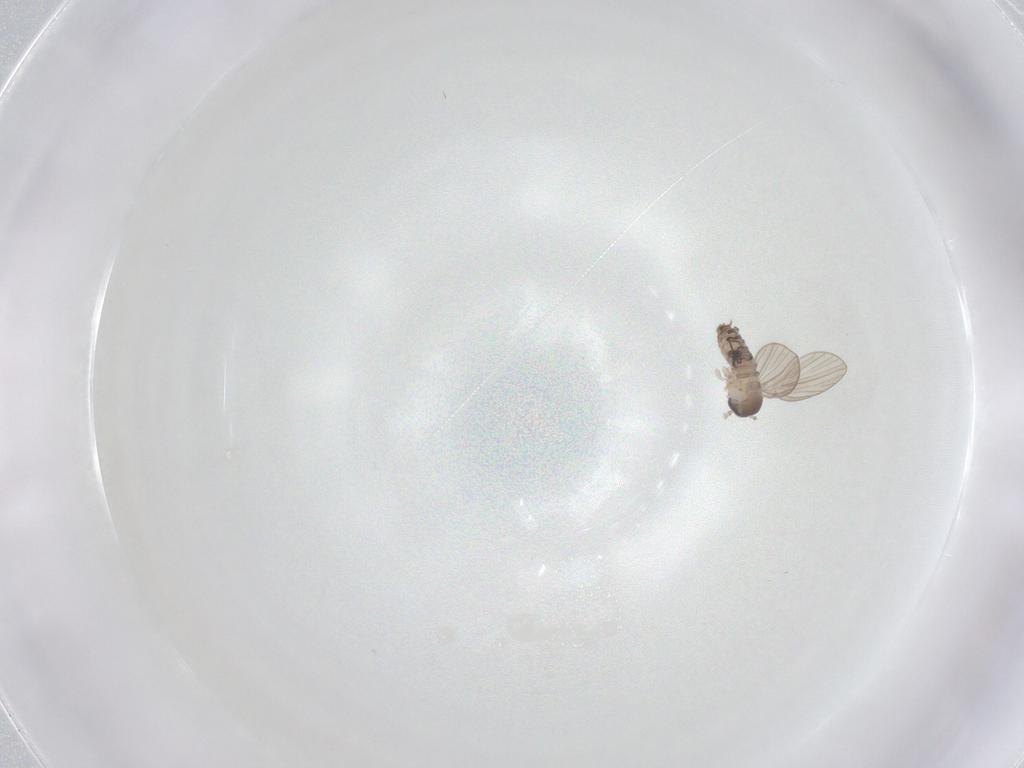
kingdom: Animalia
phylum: Arthropoda
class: Insecta
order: Diptera
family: Psychodidae
